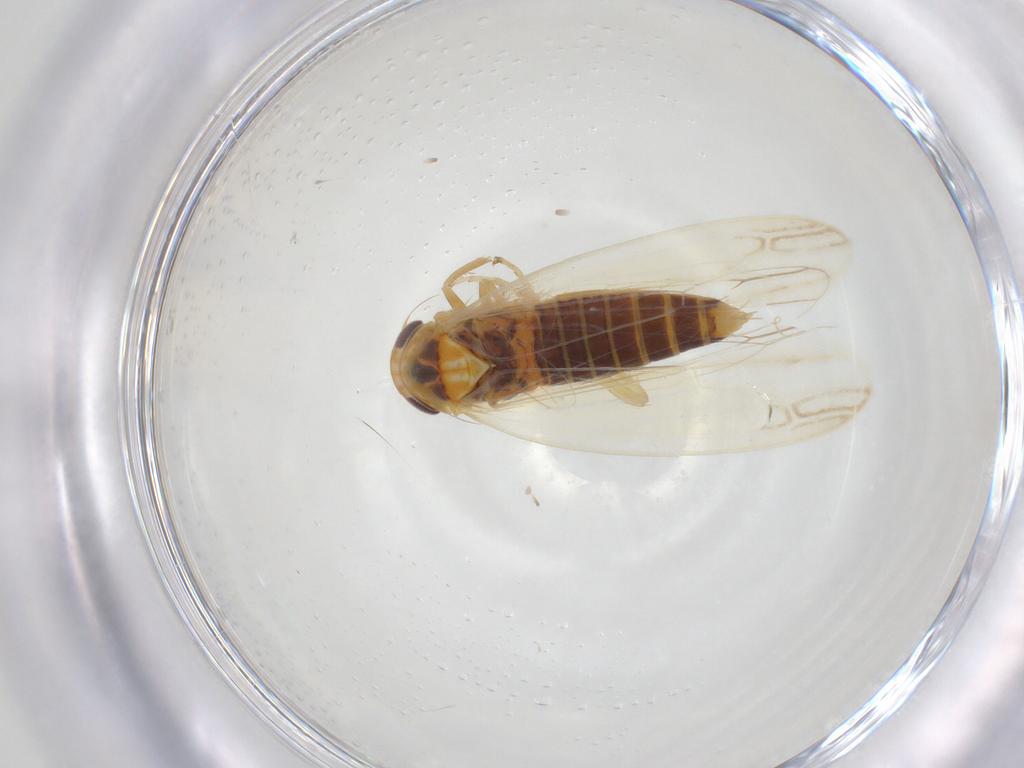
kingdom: Animalia
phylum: Arthropoda
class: Insecta
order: Hemiptera
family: Cicadellidae
